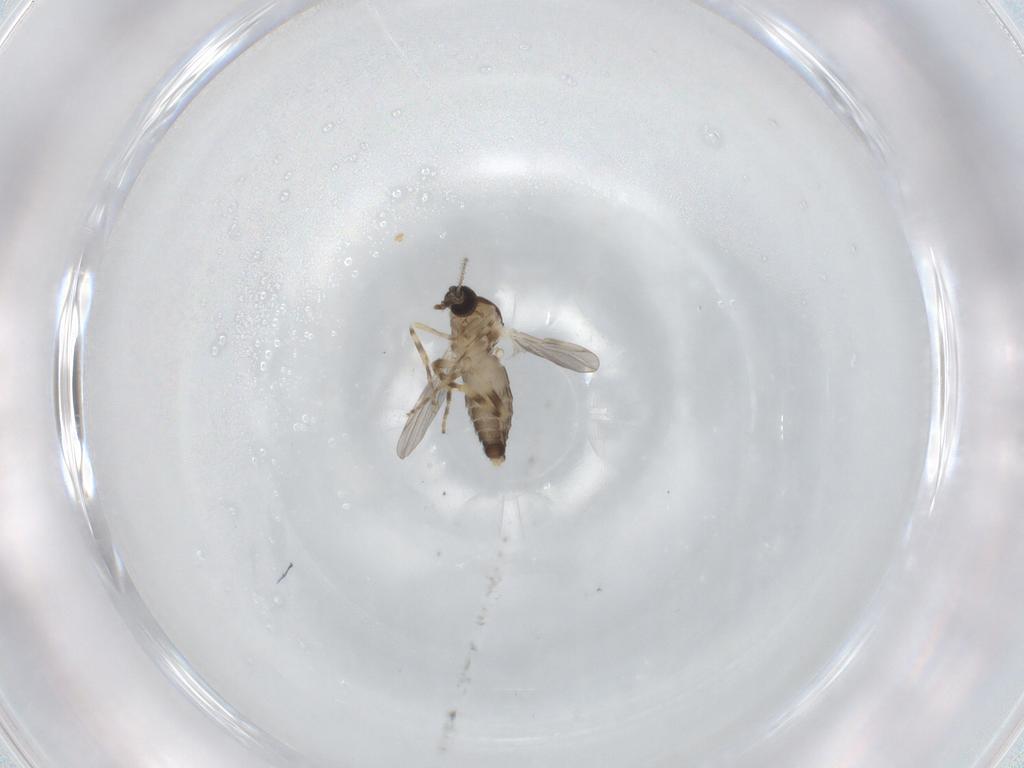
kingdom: Animalia
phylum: Arthropoda
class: Insecta
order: Diptera
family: Ceratopogonidae
